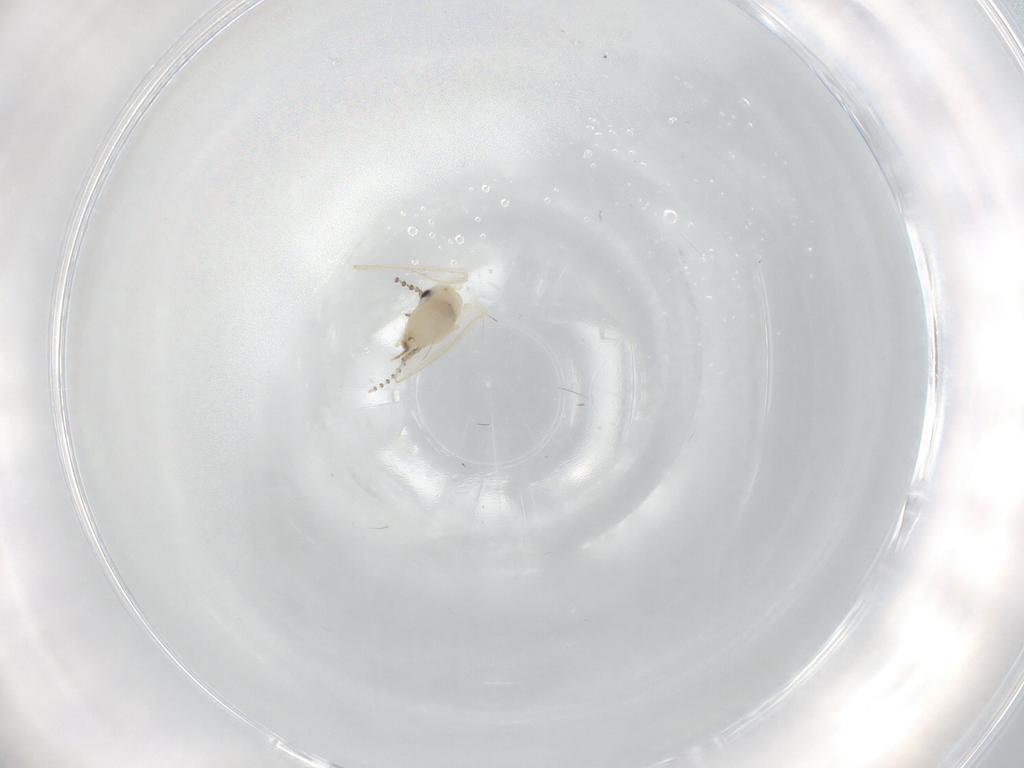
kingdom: Animalia
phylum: Arthropoda
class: Insecta
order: Diptera
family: Psychodidae
